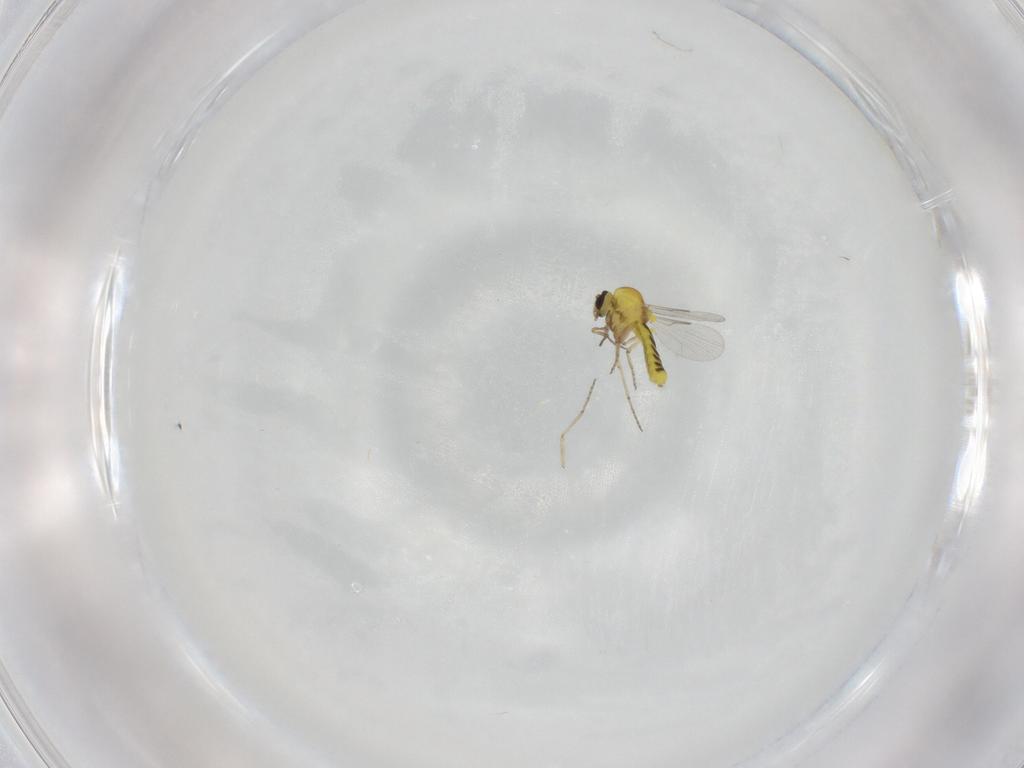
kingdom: Animalia
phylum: Arthropoda
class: Insecta
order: Diptera
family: Ceratopogonidae
